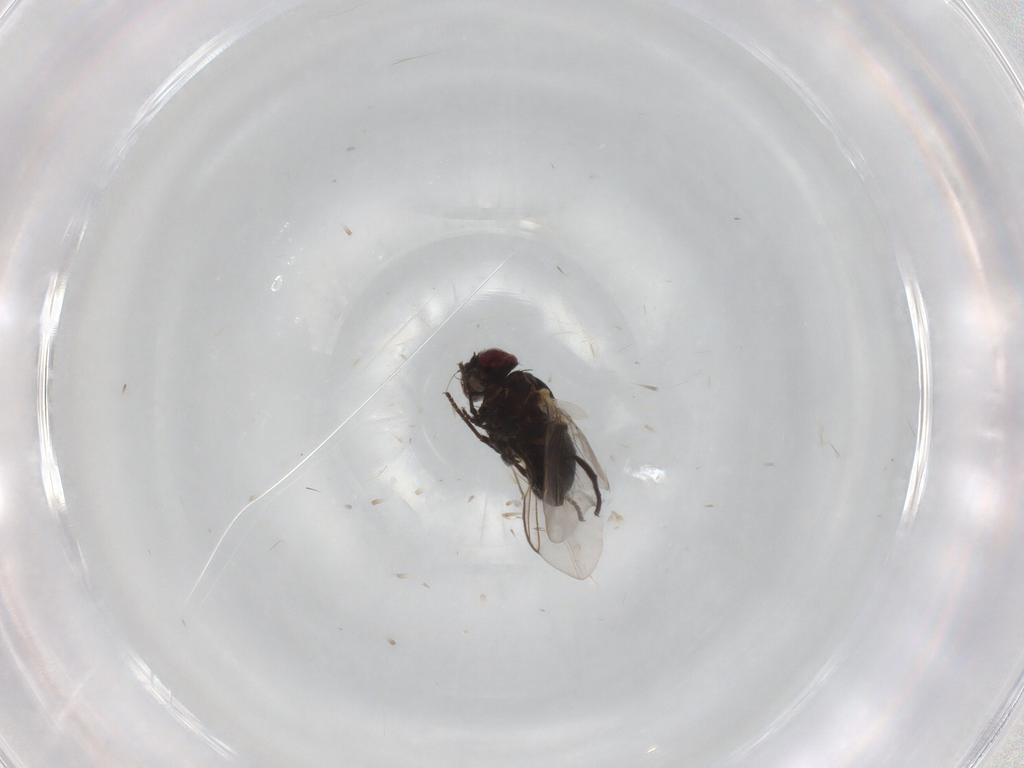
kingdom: Animalia
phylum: Arthropoda
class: Insecta
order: Diptera
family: Agromyzidae
